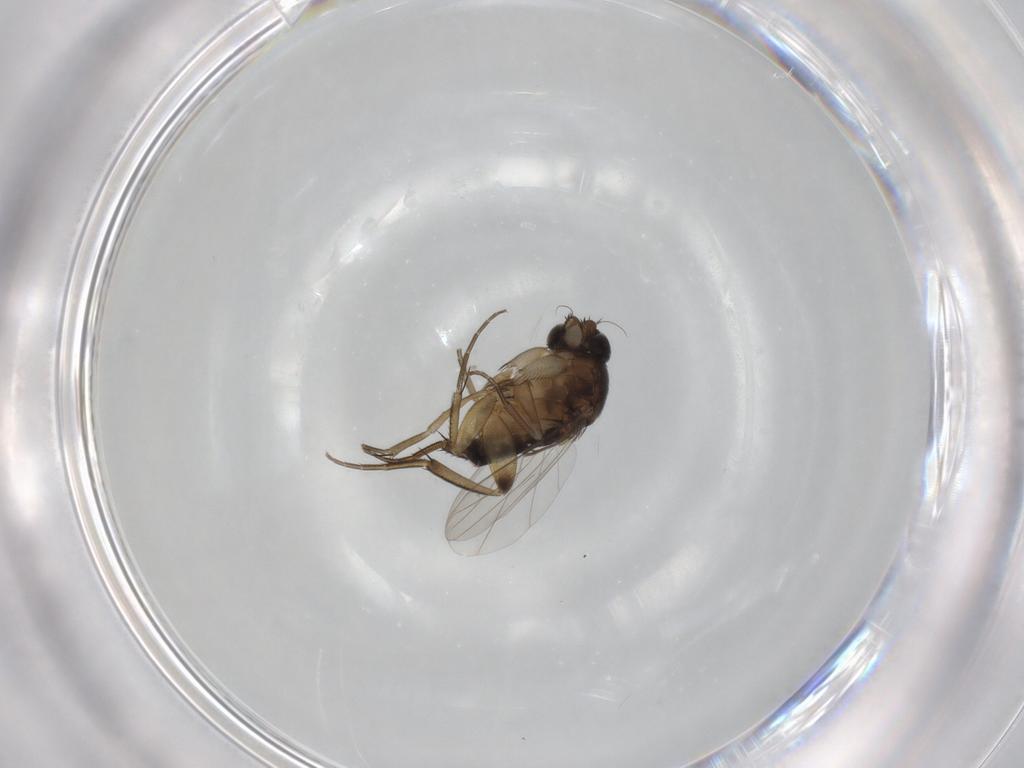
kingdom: Animalia
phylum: Arthropoda
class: Insecta
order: Diptera
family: Phoridae
